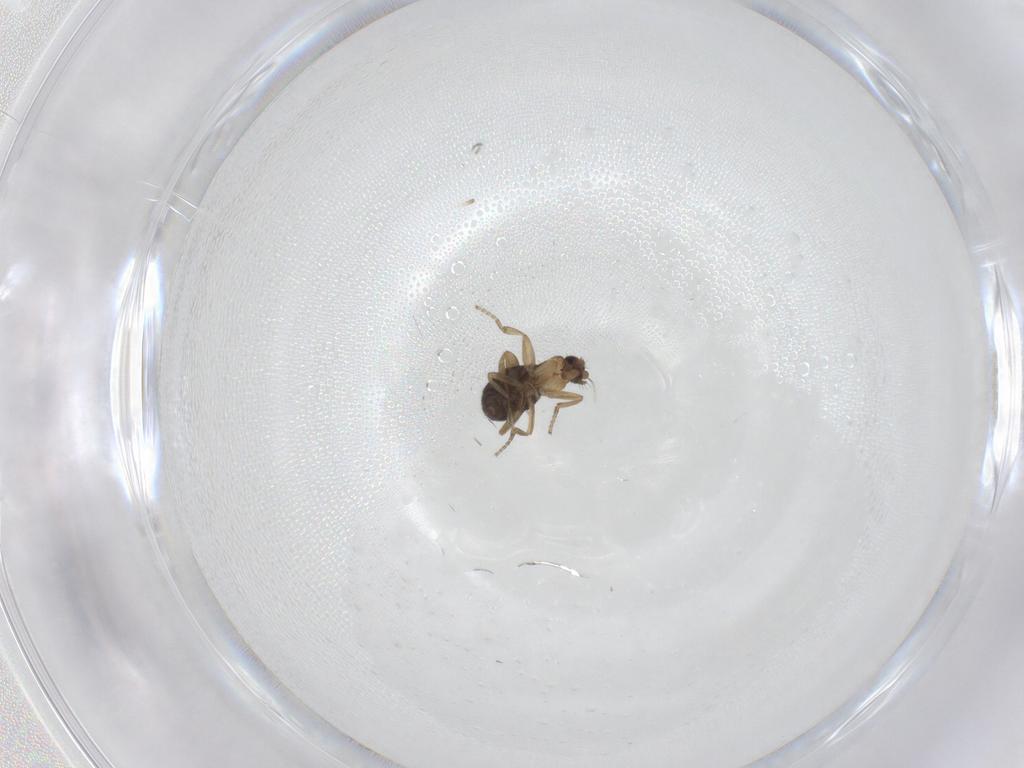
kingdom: Animalia
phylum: Arthropoda
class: Insecta
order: Diptera
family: Phoridae
